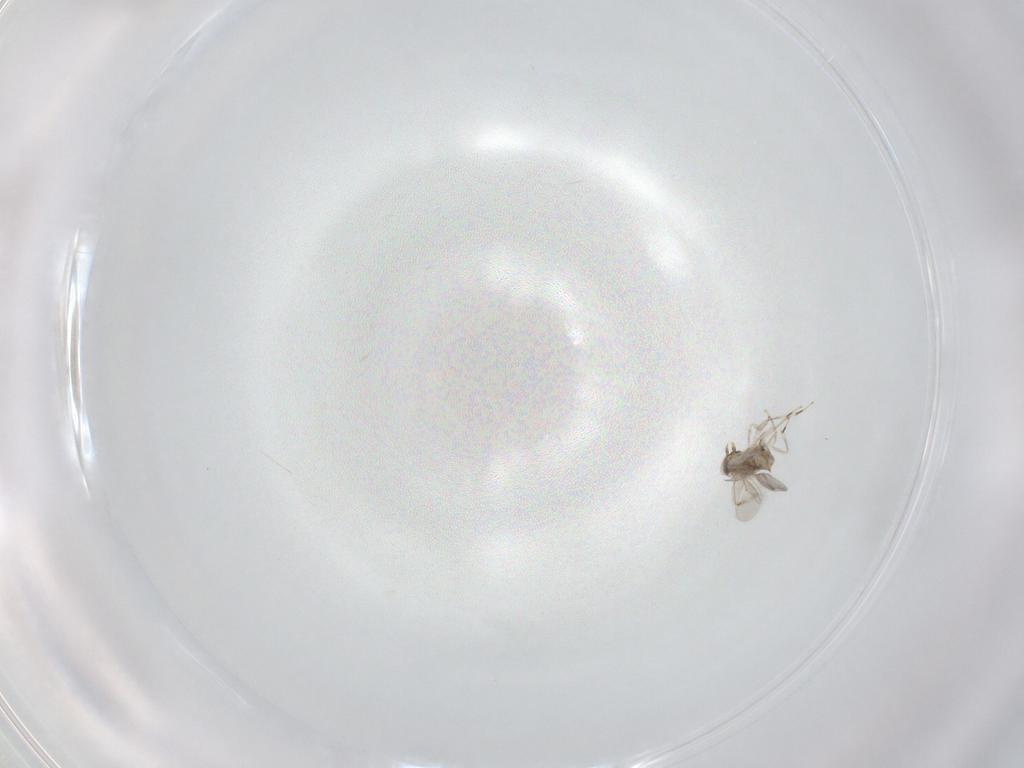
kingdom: Animalia
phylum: Arthropoda
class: Insecta
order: Hymenoptera
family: Aphelinidae
